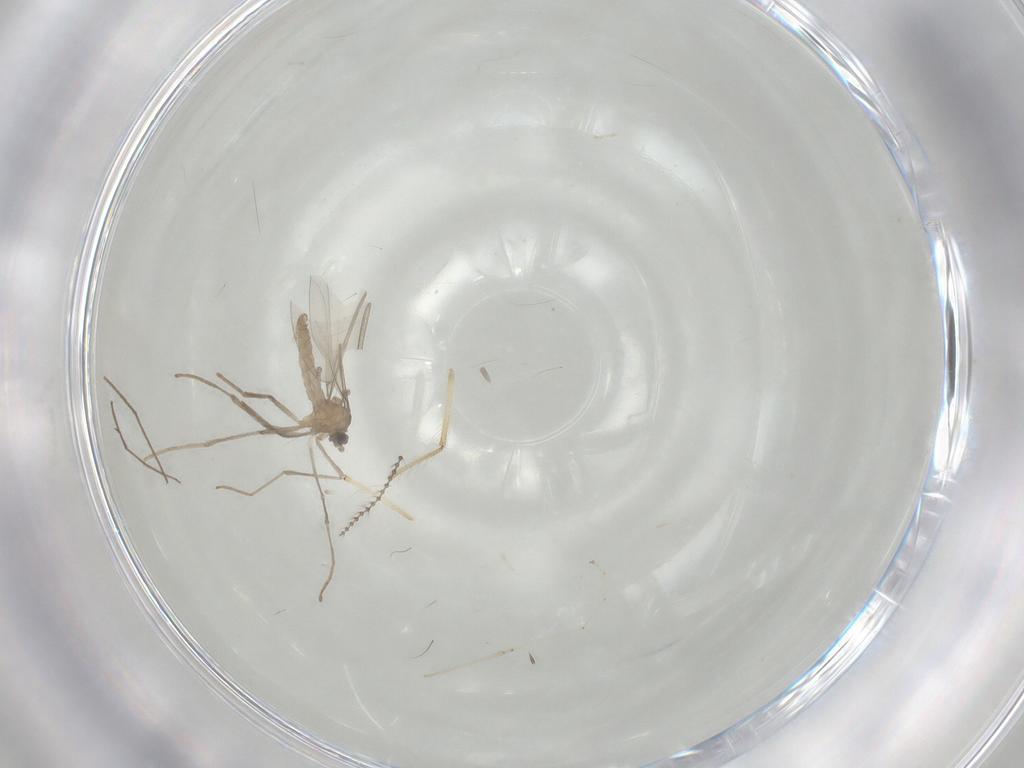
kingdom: Animalia
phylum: Arthropoda
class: Insecta
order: Diptera
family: Cecidomyiidae
